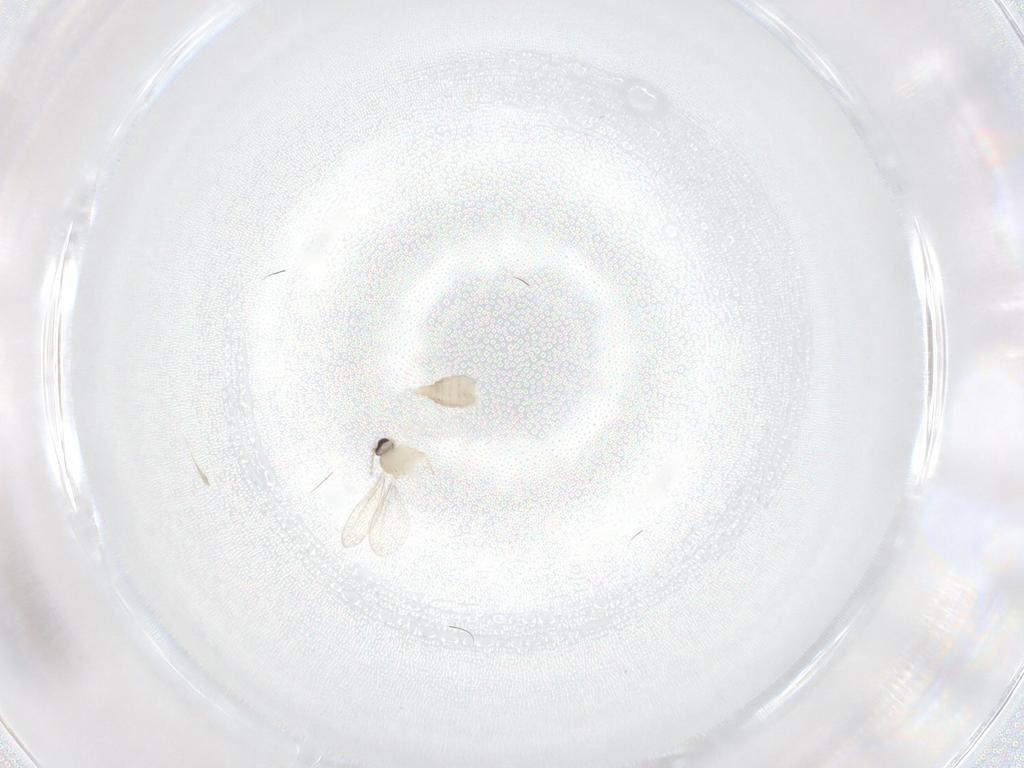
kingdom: Animalia
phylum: Arthropoda
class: Insecta
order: Diptera
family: Cecidomyiidae
